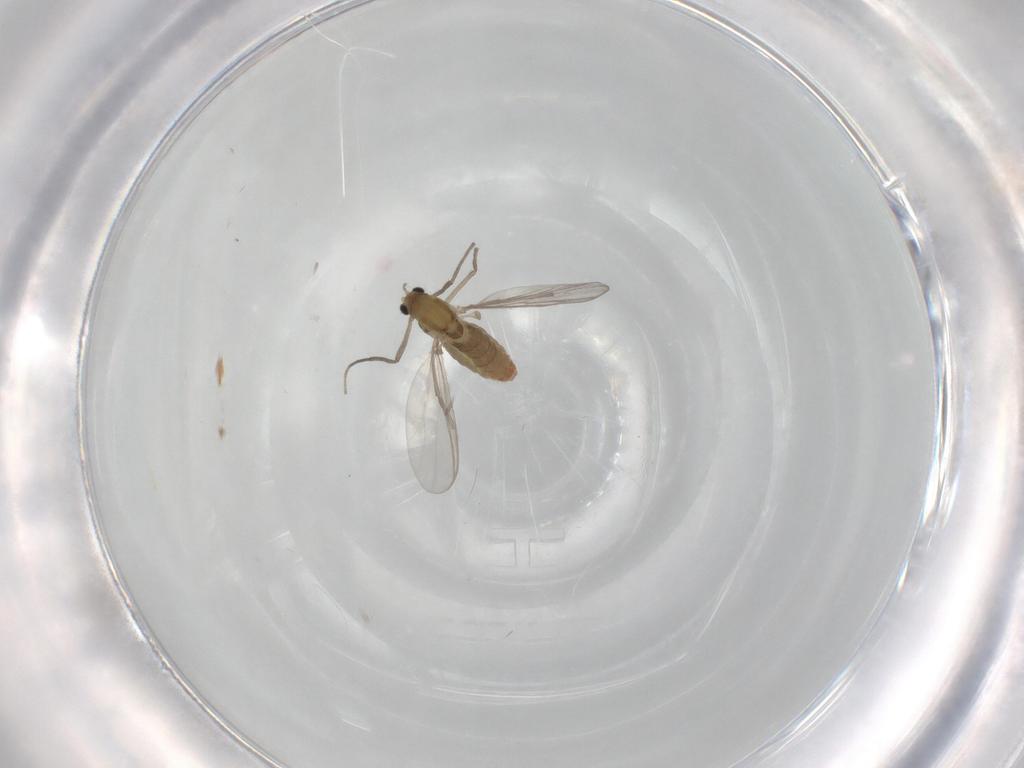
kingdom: Animalia
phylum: Arthropoda
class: Insecta
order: Diptera
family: Chironomidae
